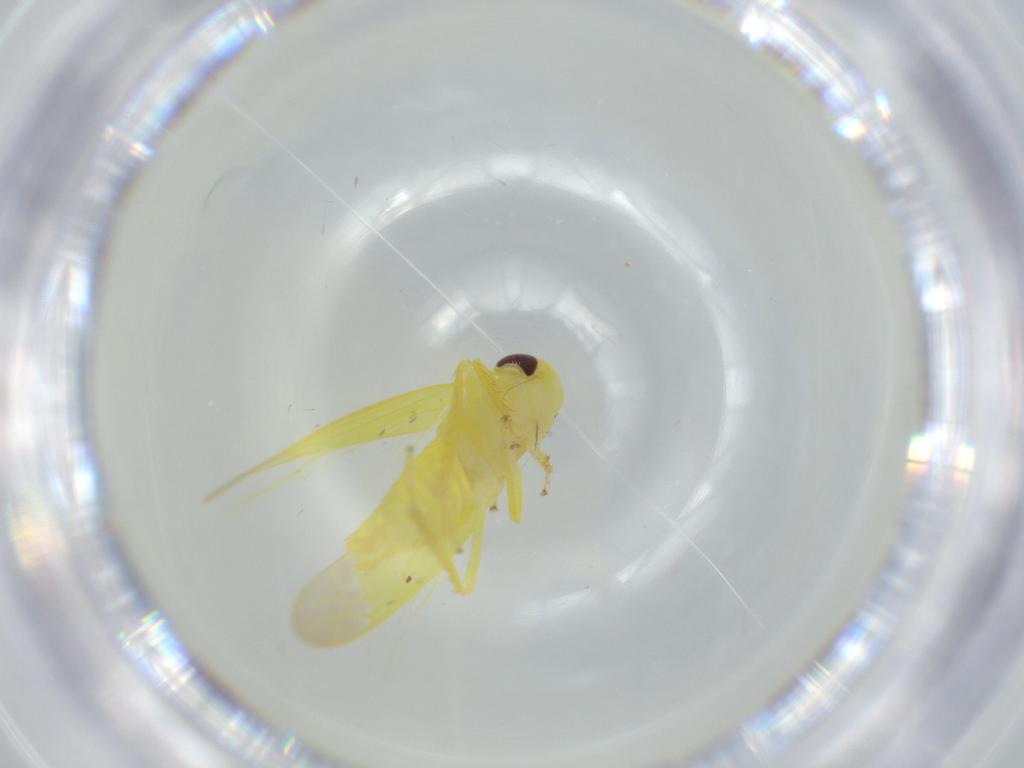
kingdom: Animalia
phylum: Arthropoda
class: Insecta
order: Hemiptera
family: Cicadellidae
